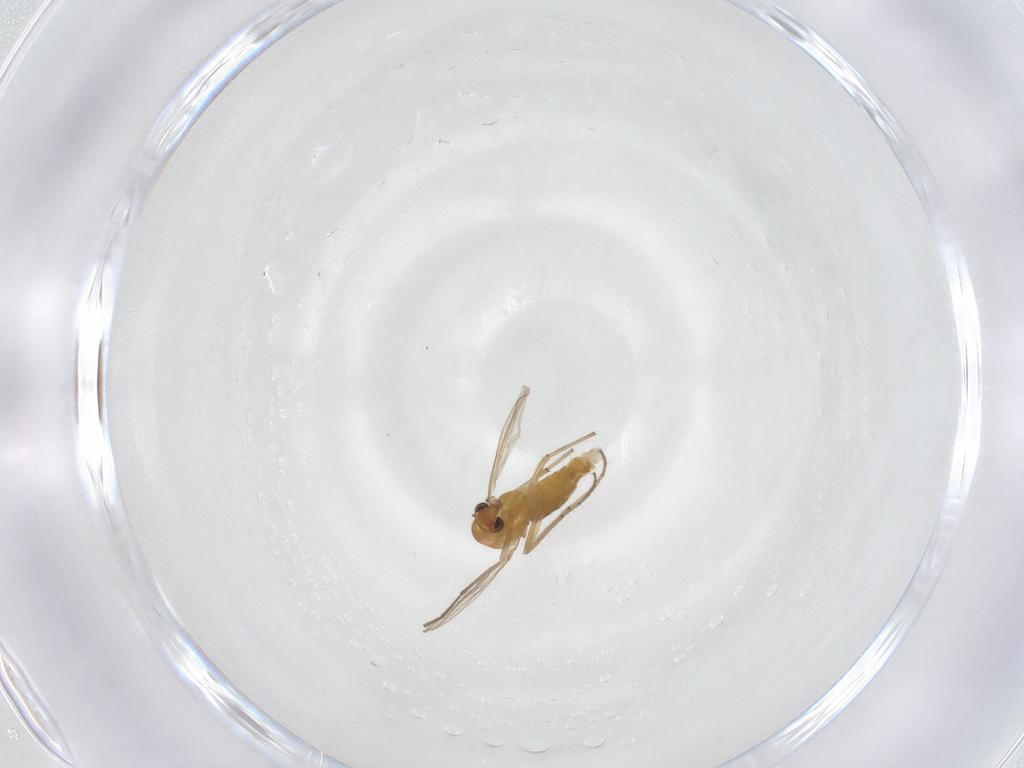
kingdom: Animalia
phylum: Arthropoda
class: Insecta
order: Diptera
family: Chironomidae
